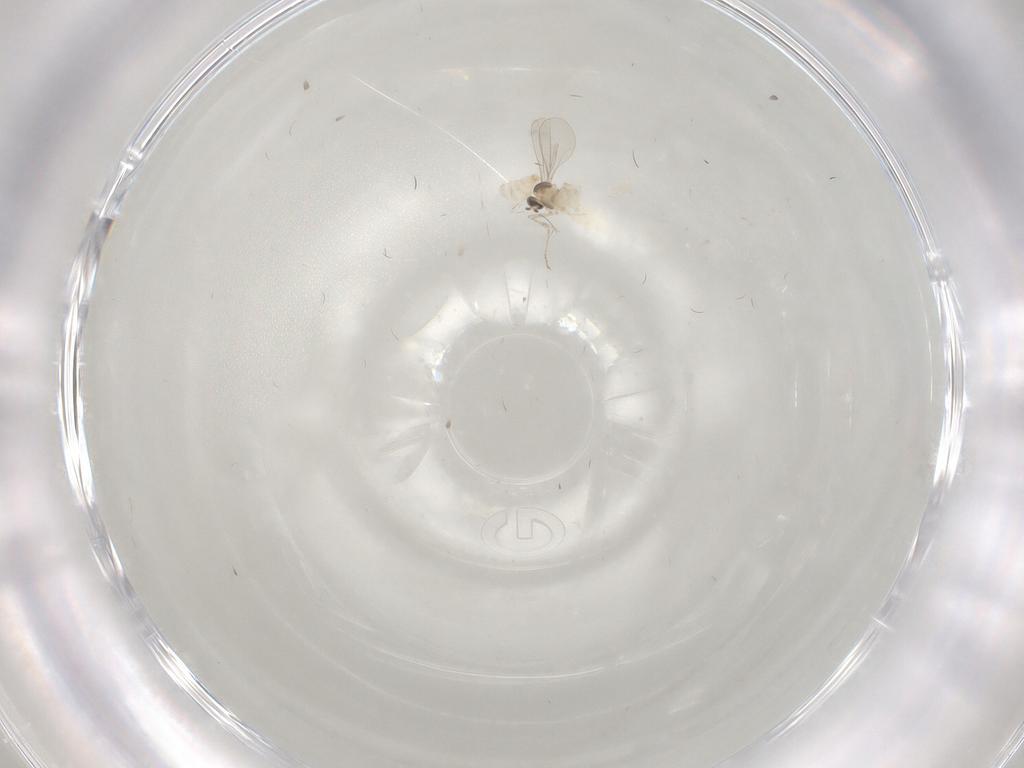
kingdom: Animalia
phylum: Arthropoda
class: Insecta
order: Diptera
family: Cecidomyiidae
